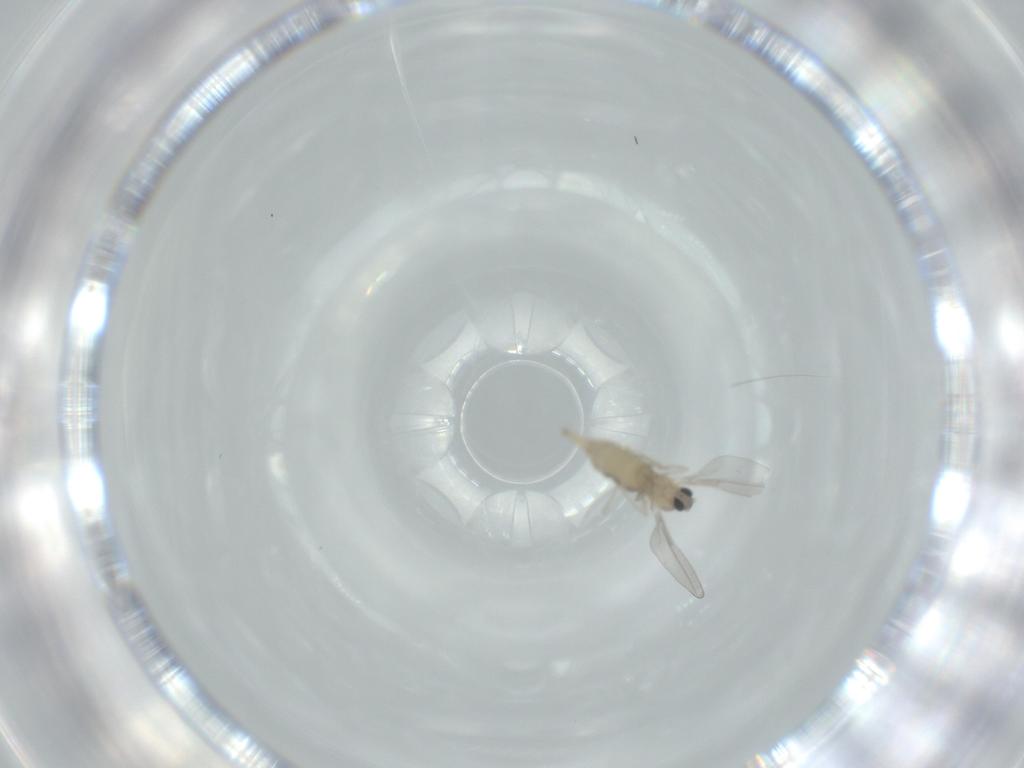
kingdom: Animalia
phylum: Arthropoda
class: Insecta
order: Diptera
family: Cecidomyiidae
